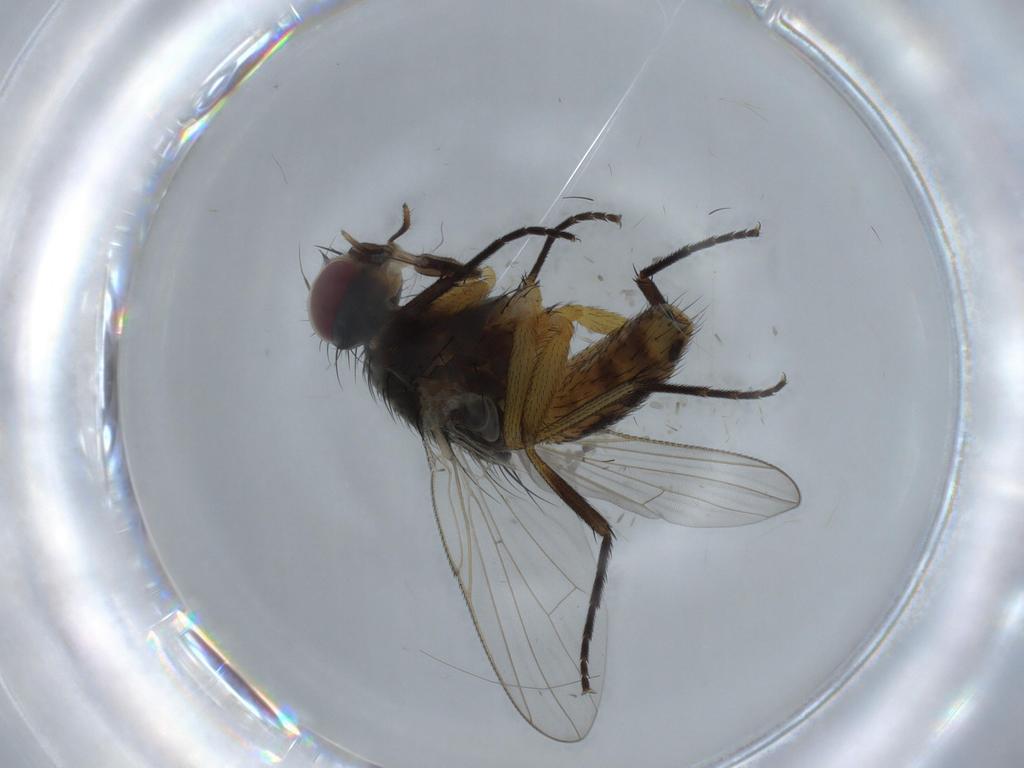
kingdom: Animalia
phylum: Arthropoda
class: Insecta
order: Diptera
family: Muscidae
